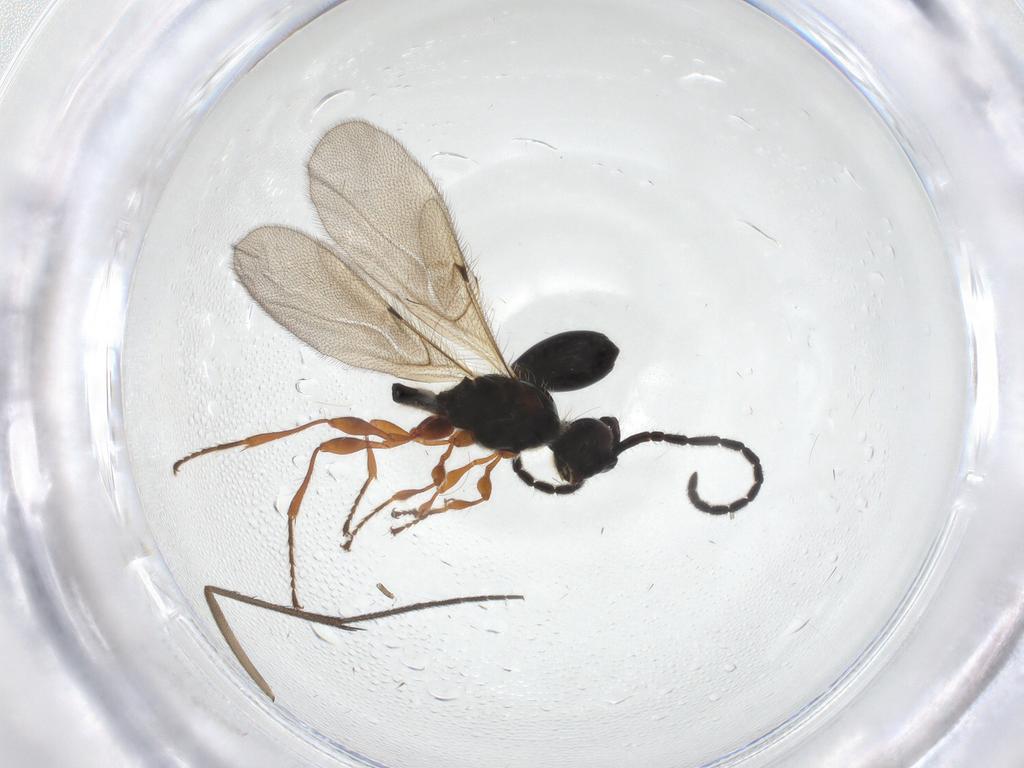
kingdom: Animalia
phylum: Arthropoda
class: Insecta
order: Hymenoptera
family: Diapriidae
